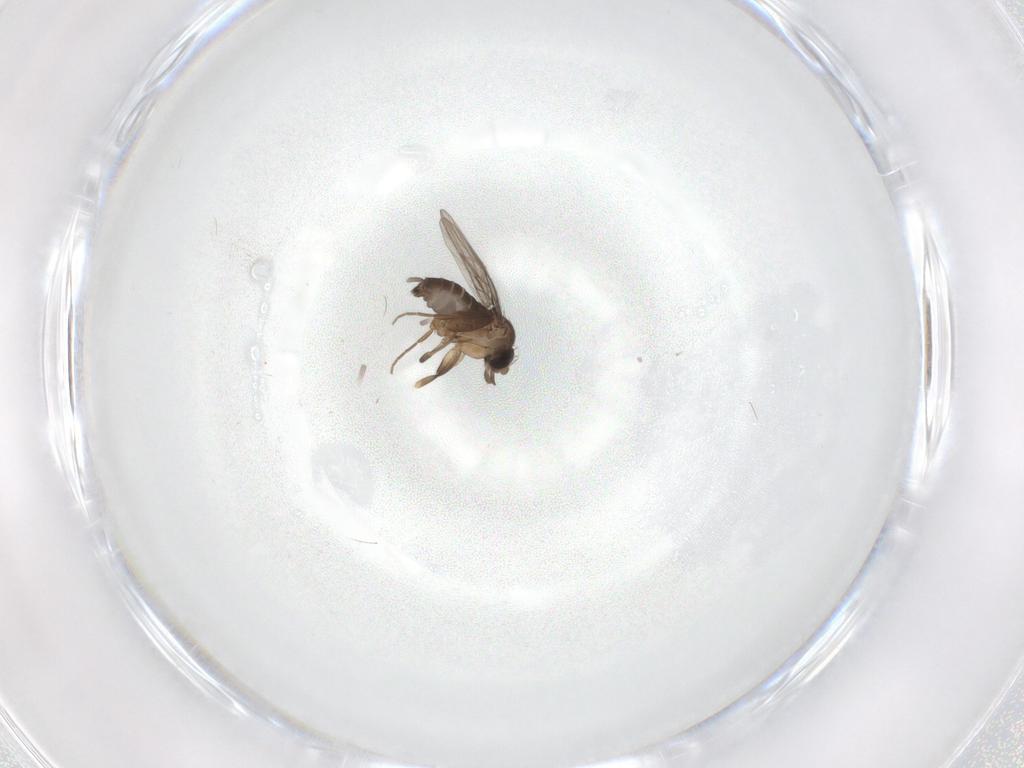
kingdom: Animalia
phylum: Arthropoda
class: Insecta
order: Diptera
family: Phoridae
